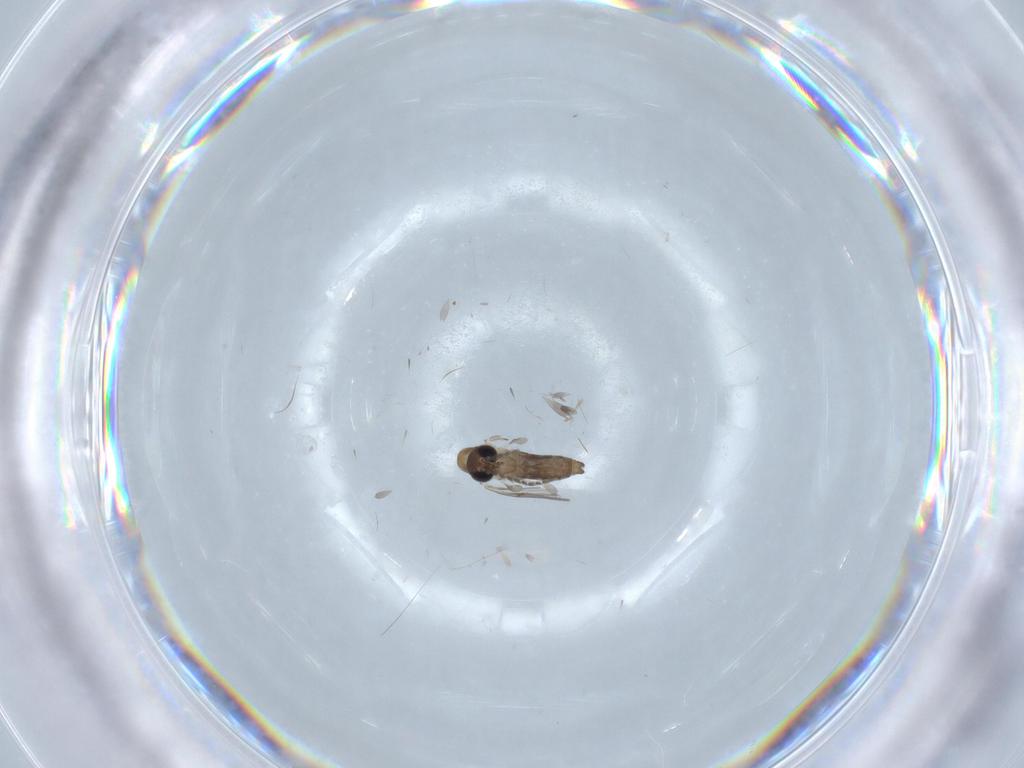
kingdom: Animalia
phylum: Arthropoda
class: Insecta
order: Diptera
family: Psychodidae
